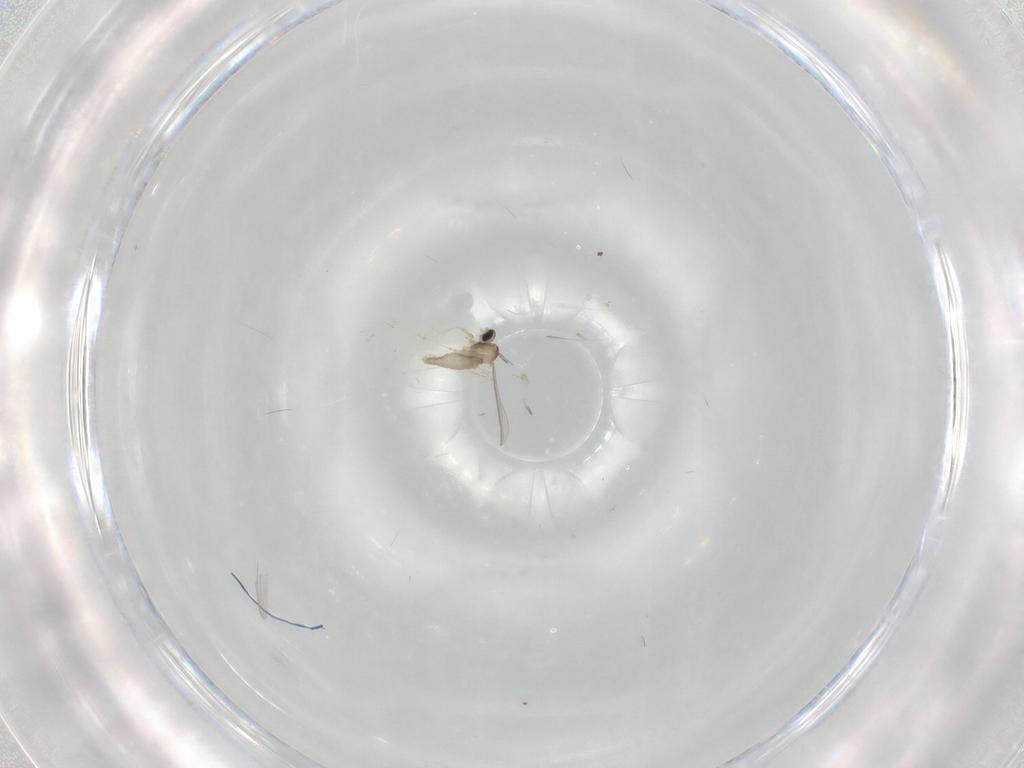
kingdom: Animalia
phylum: Arthropoda
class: Insecta
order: Diptera
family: Cecidomyiidae
